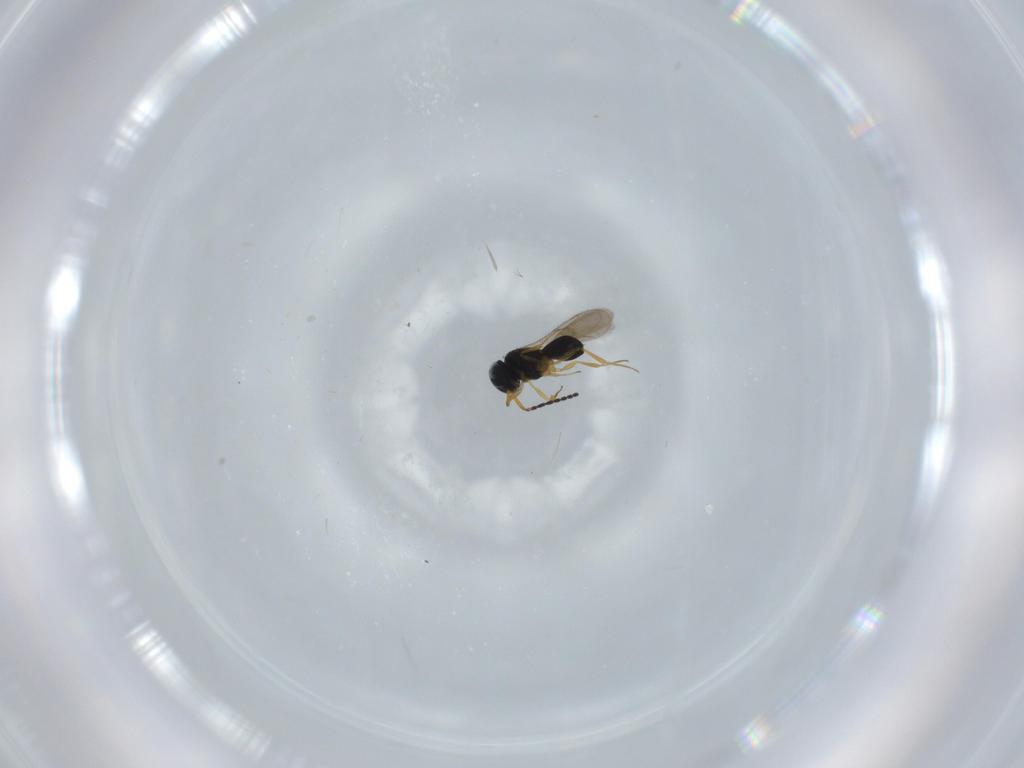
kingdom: Animalia
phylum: Arthropoda
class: Insecta
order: Hymenoptera
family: Scelionidae
